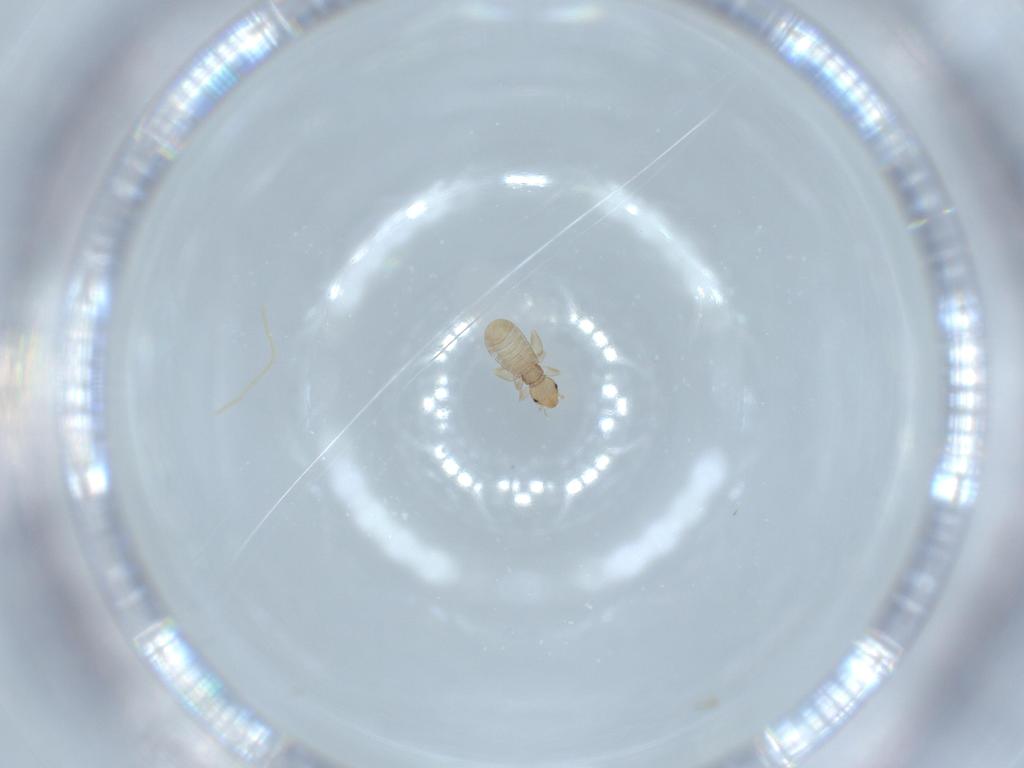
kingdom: Animalia
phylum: Arthropoda
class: Insecta
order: Psocodea
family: Liposcelididae
